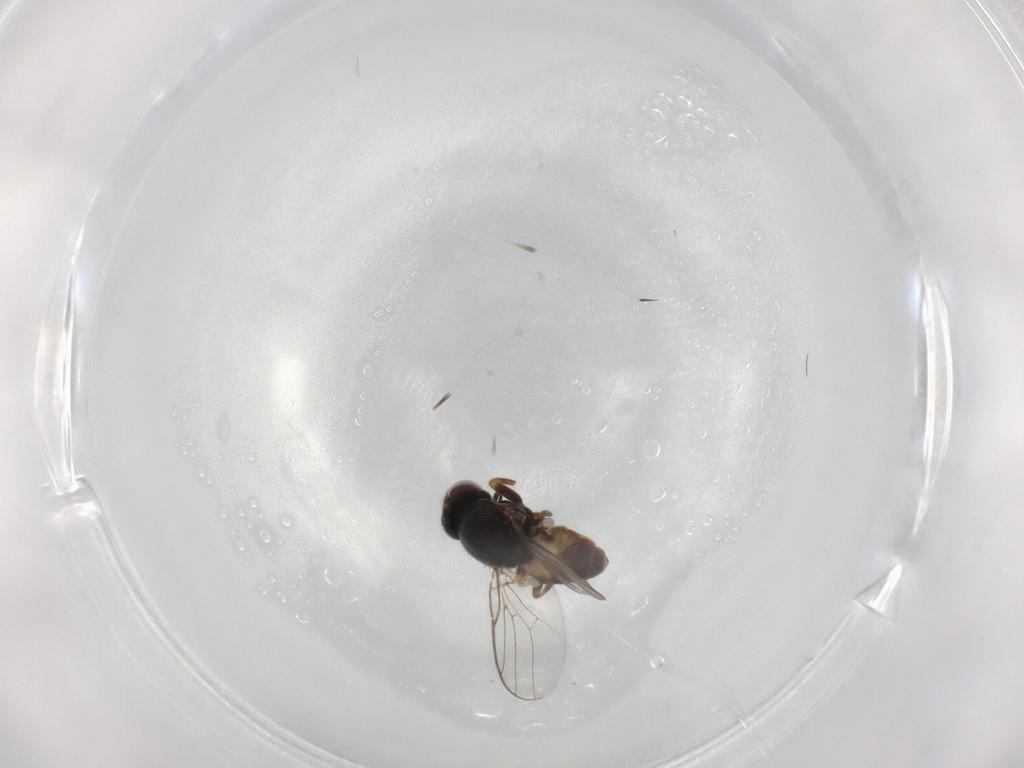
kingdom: Animalia
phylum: Arthropoda
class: Insecta
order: Diptera
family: Chloropidae
